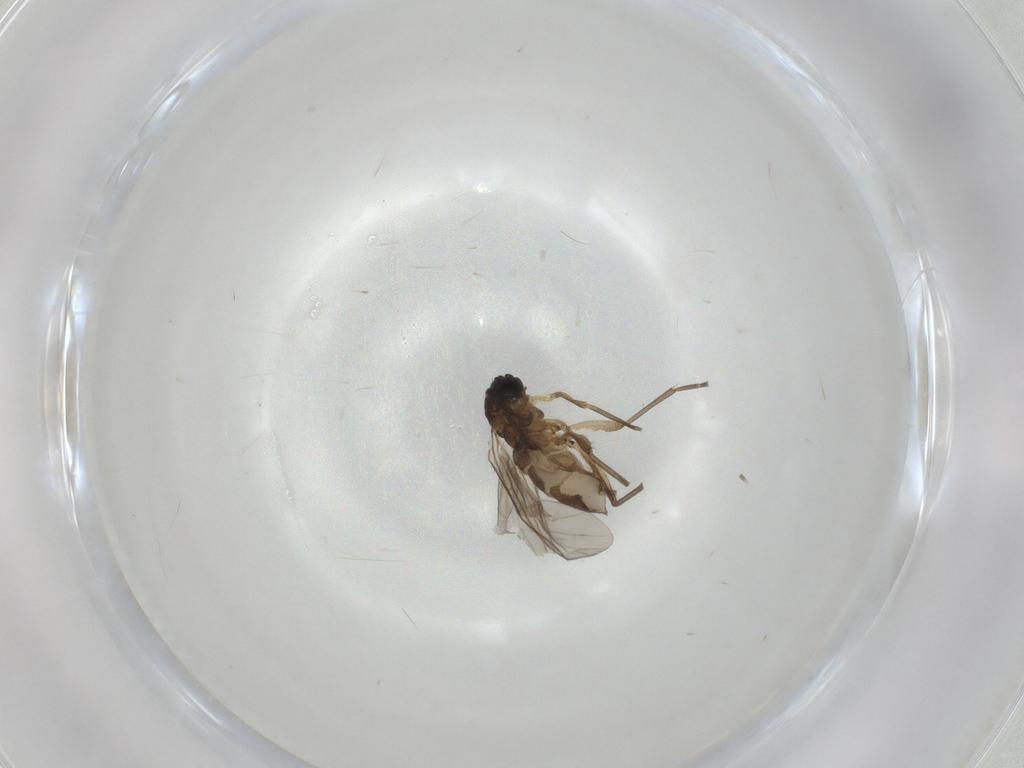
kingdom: Animalia
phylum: Arthropoda
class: Insecta
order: Diptera
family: Sciaridae
